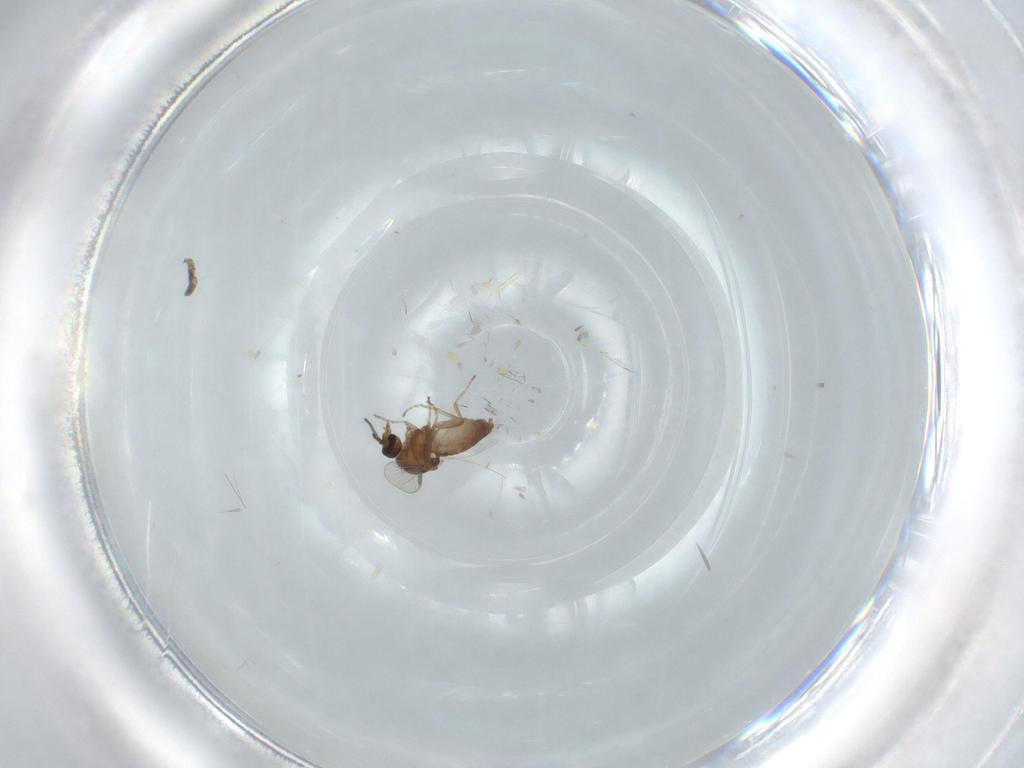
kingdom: Animalia
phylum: Arthropoda
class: Insecta
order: Diptera
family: Ceratopogonidae
